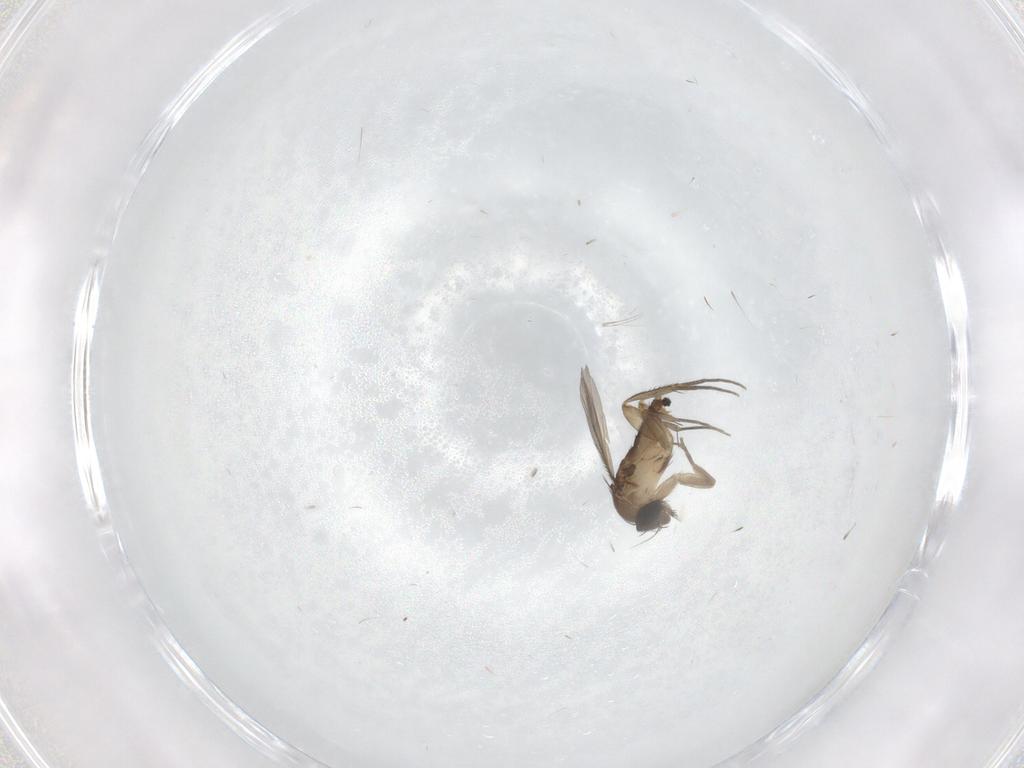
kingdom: Animalia
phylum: Arthropoda
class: Insecta
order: Diptera
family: Phoridae
